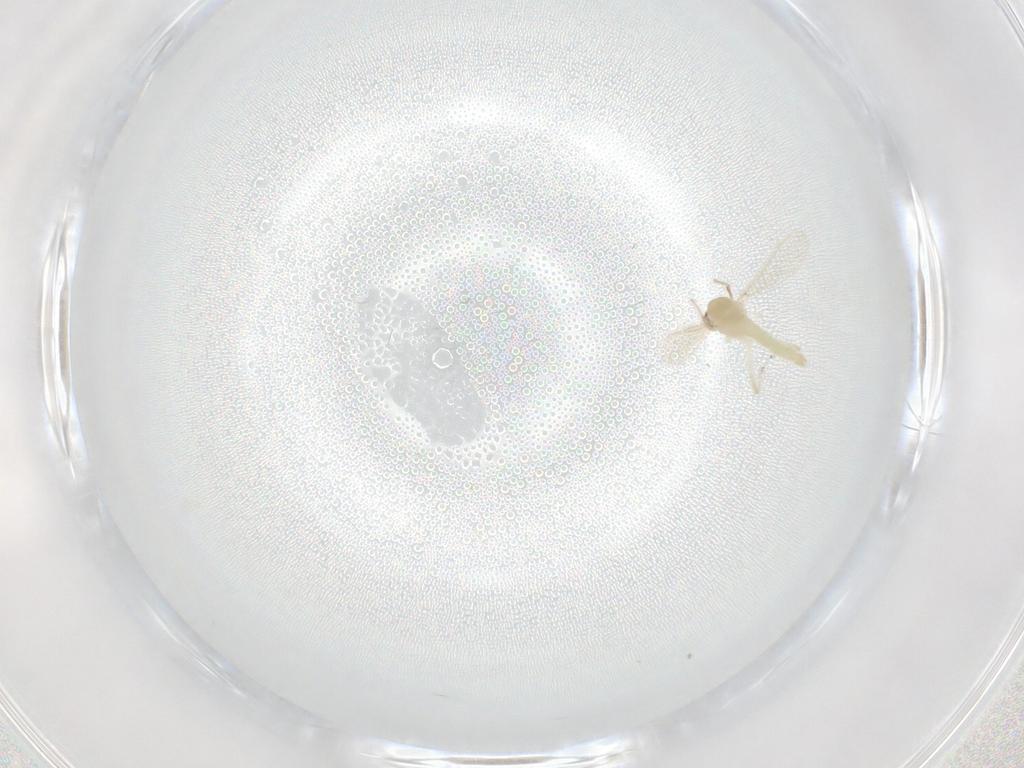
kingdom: Animalia
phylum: Arthropoda
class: Insecta
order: Diptera
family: Chironomidae
